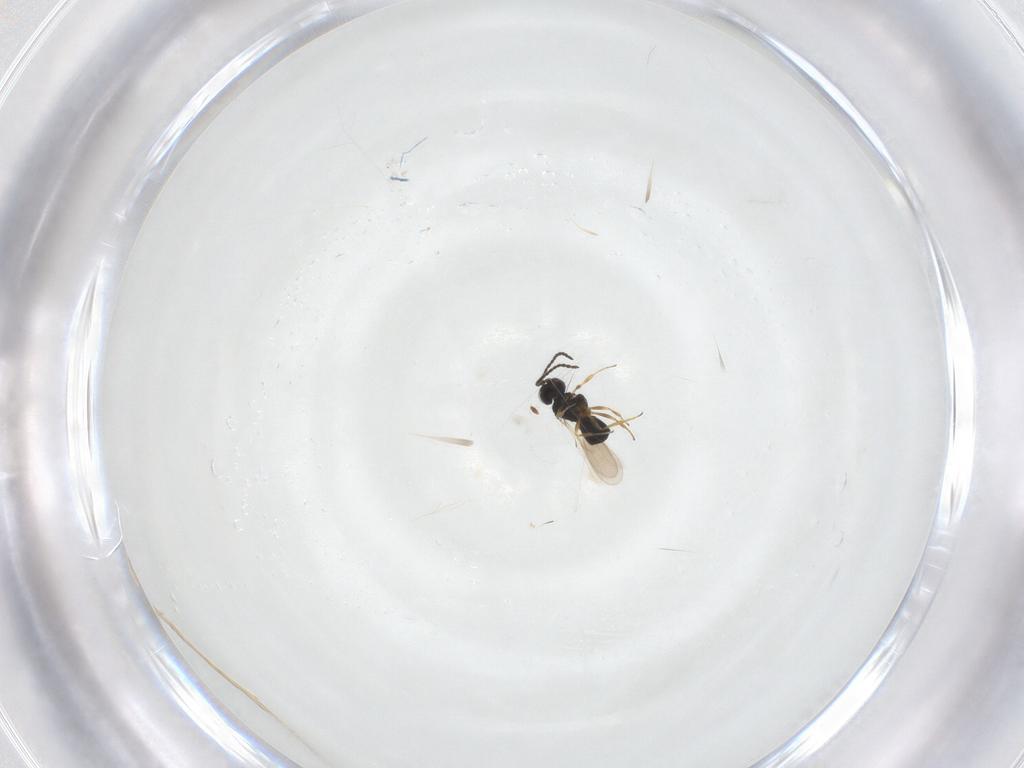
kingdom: Animalia
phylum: Arthropoda
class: Insecta
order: Hymenoptera
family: Scelionidae
